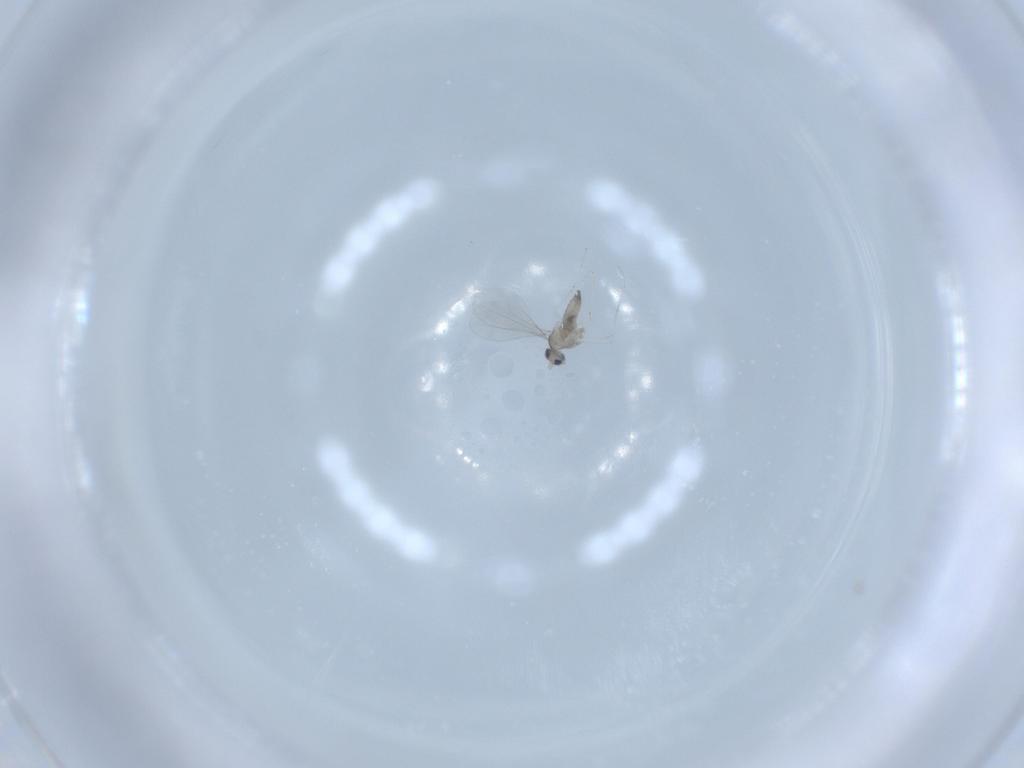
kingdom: Animalia
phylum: Arthropoda
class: Insecta
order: Diptera
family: Cecidomyiidae
